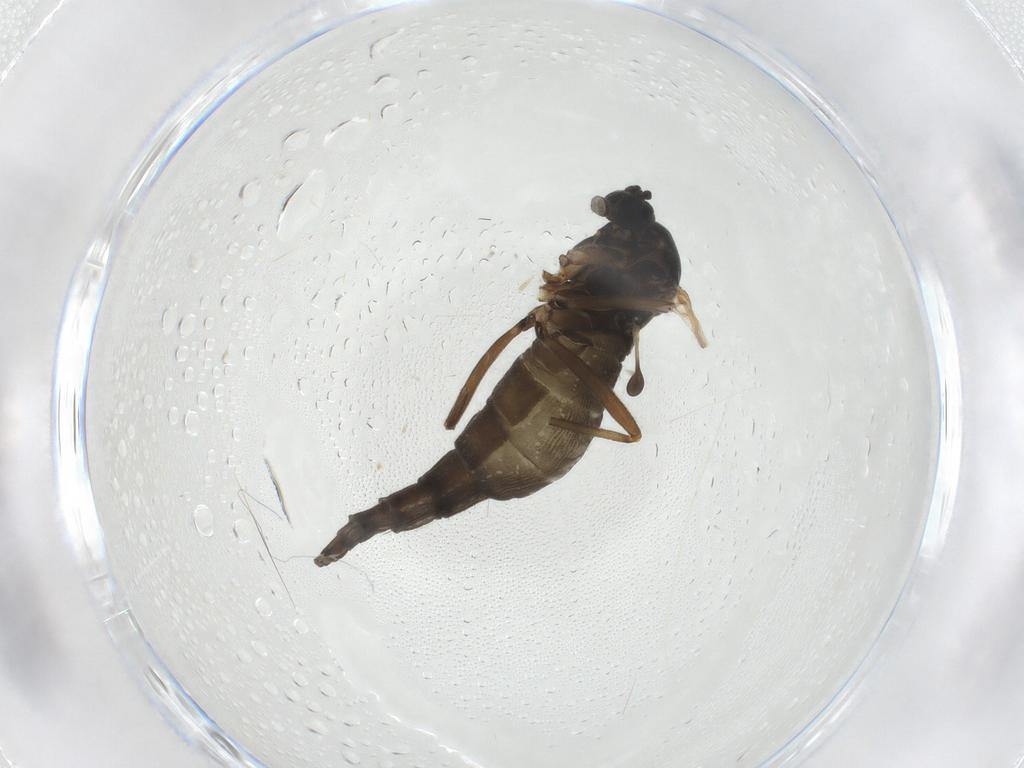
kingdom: Animalia
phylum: Arthropoda
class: Insecta
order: Diptera
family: Sciaridae
